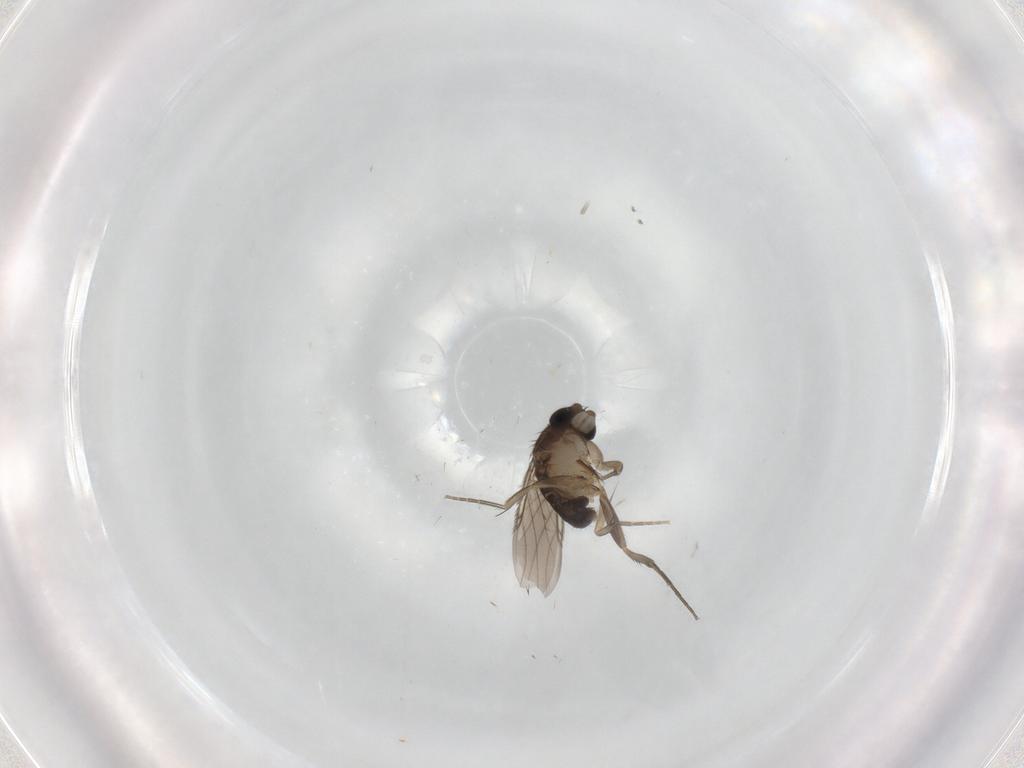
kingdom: Animalia
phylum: Arthropoda
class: Insecta
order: Diptera
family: Phoridae
